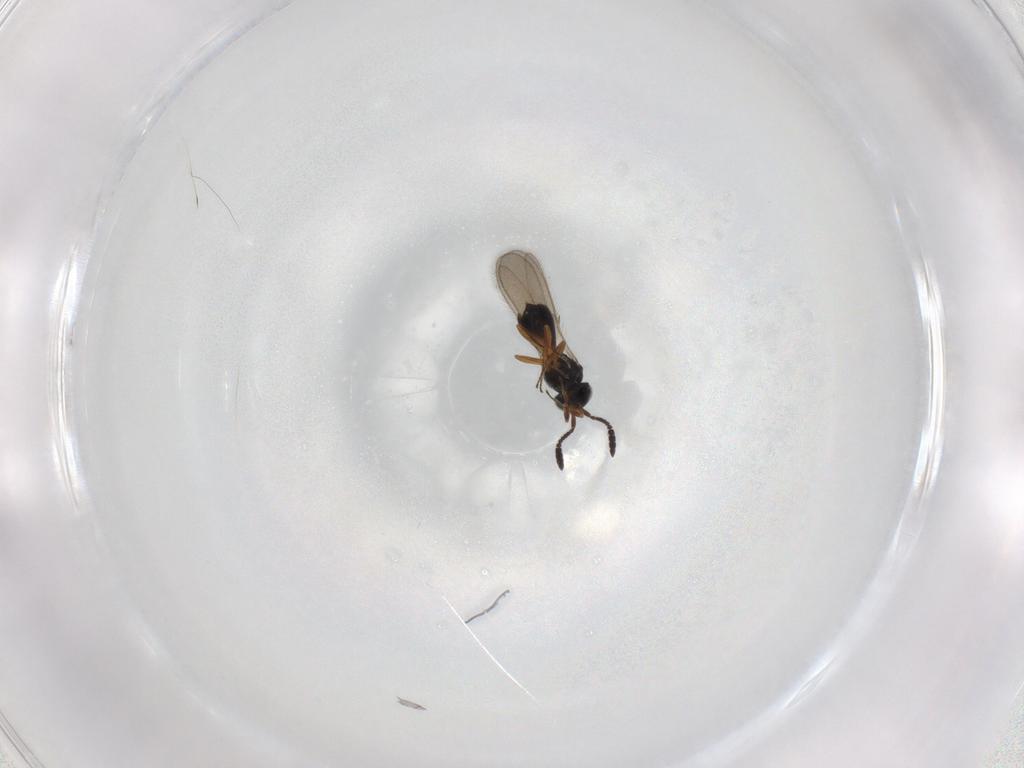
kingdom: Animalia
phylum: Arthropoda
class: Insecta
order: Hymenoptera
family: Scelionidae
